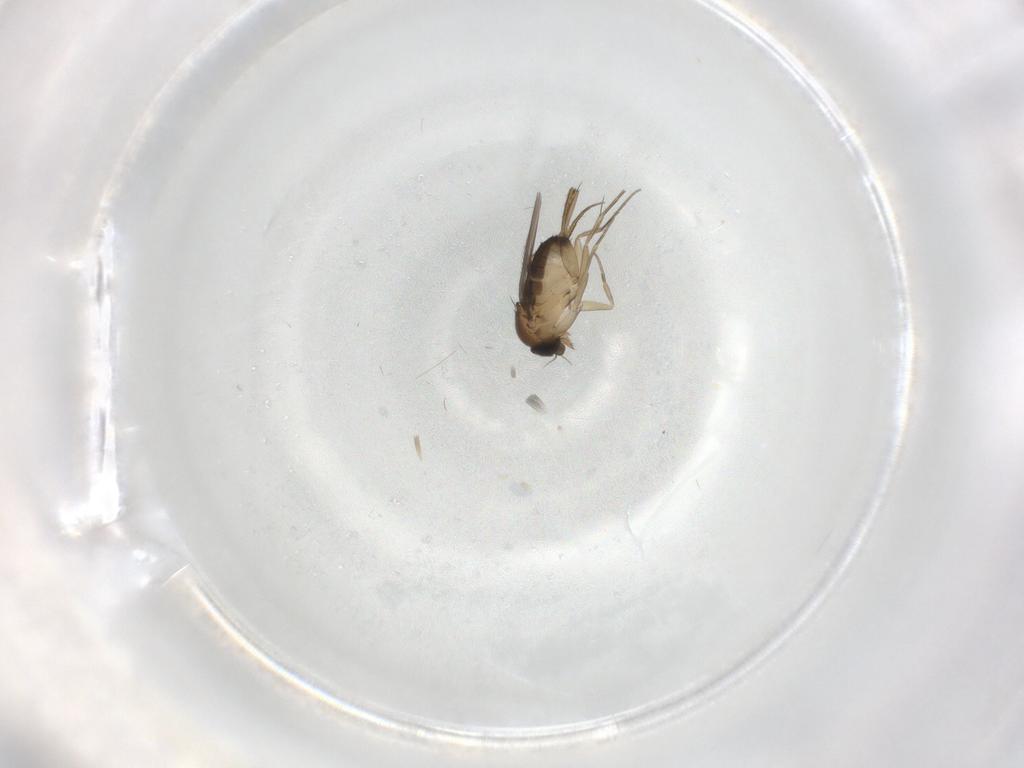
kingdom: Animalia
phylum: Arthropoda
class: Insecta
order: Diptera
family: Phoridae
